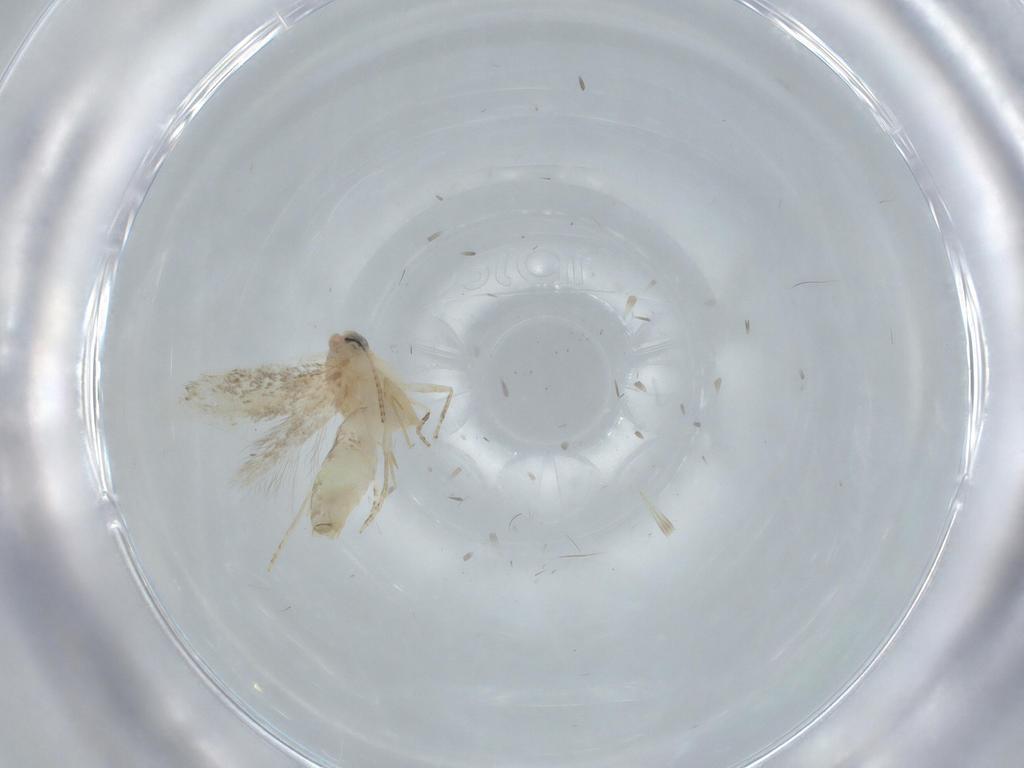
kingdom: Animalia
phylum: Arthropoda
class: Insecta
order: Lepidoptera
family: Bucculatricidae
